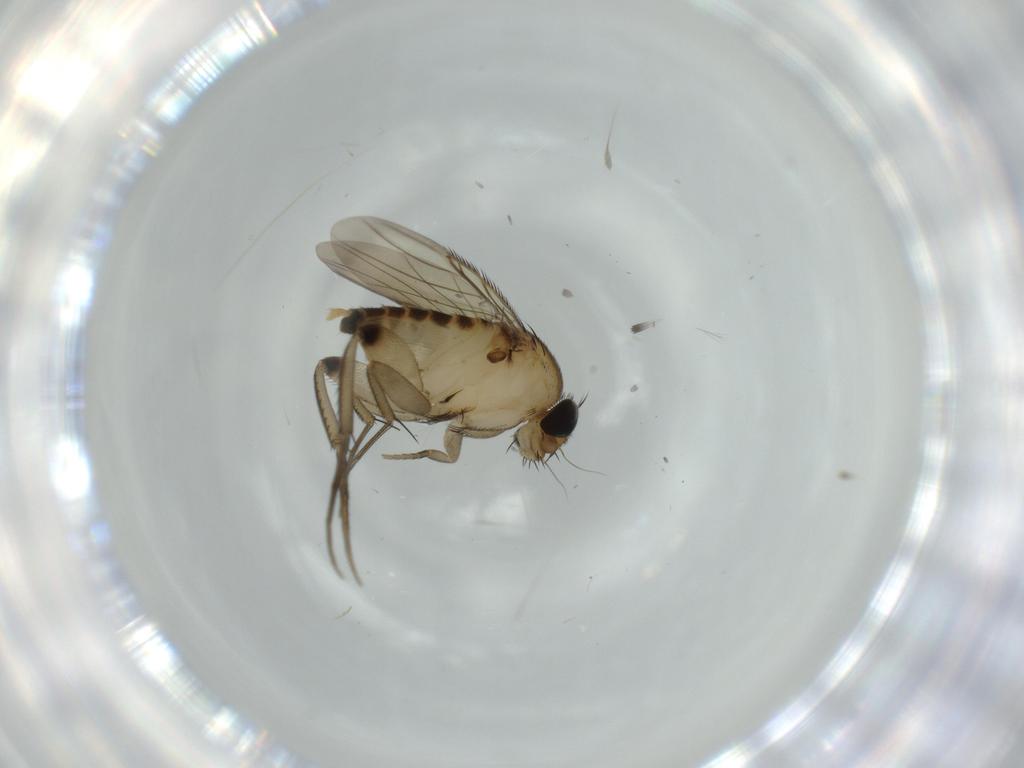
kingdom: Animalia
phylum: Arthropoda
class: Insecta
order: Diptera
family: Phoridae
